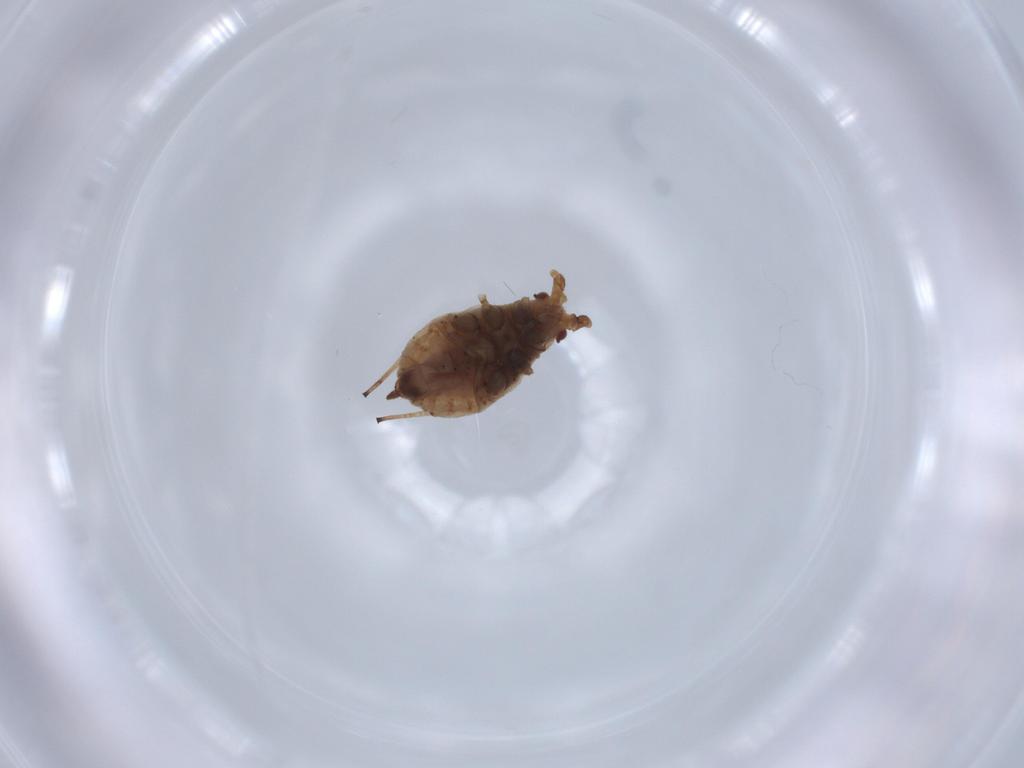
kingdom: Animalia
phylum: Arthropoda
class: Insecta
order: Hemiptera
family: Aphididae
